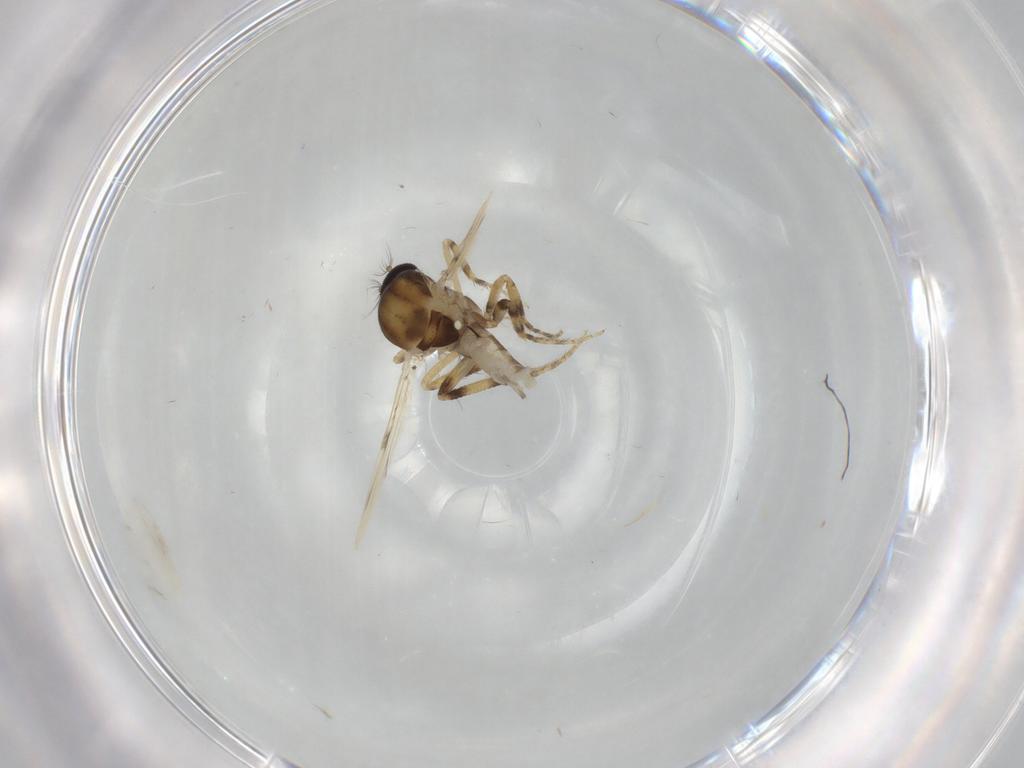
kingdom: Animalia
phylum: Arthropoda
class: Insecta
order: Diptera
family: Ceratopogonidae
